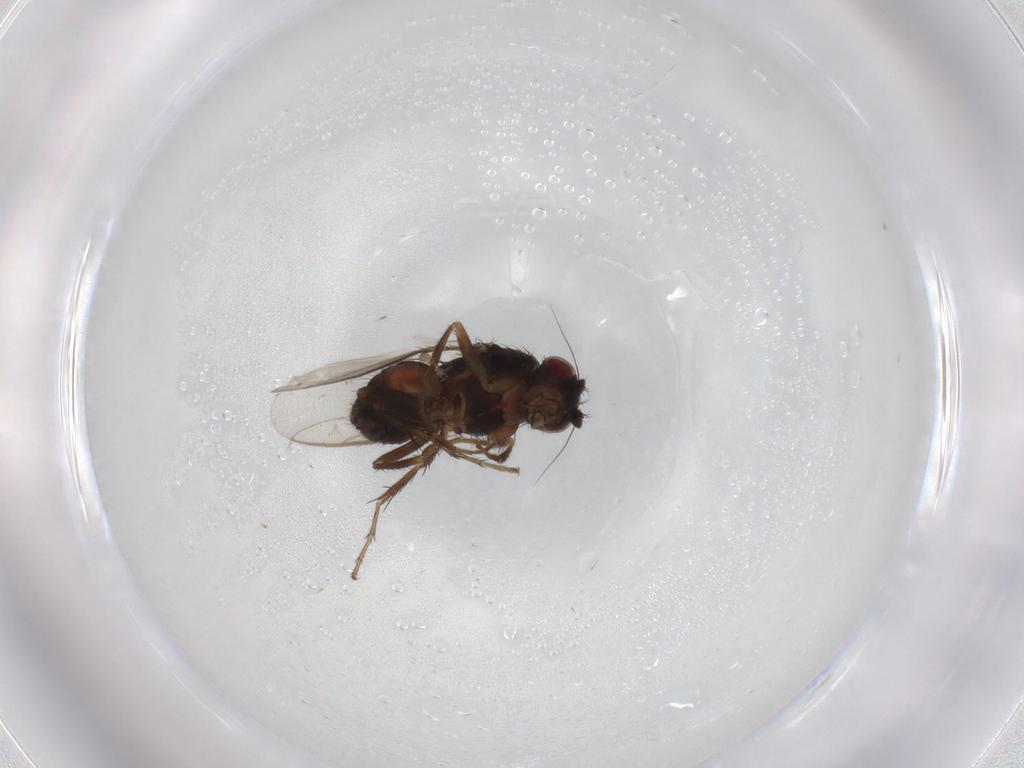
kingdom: Animalia
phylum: Arthropoda
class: Insecta
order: Diptera
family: Sphaeroceridae
